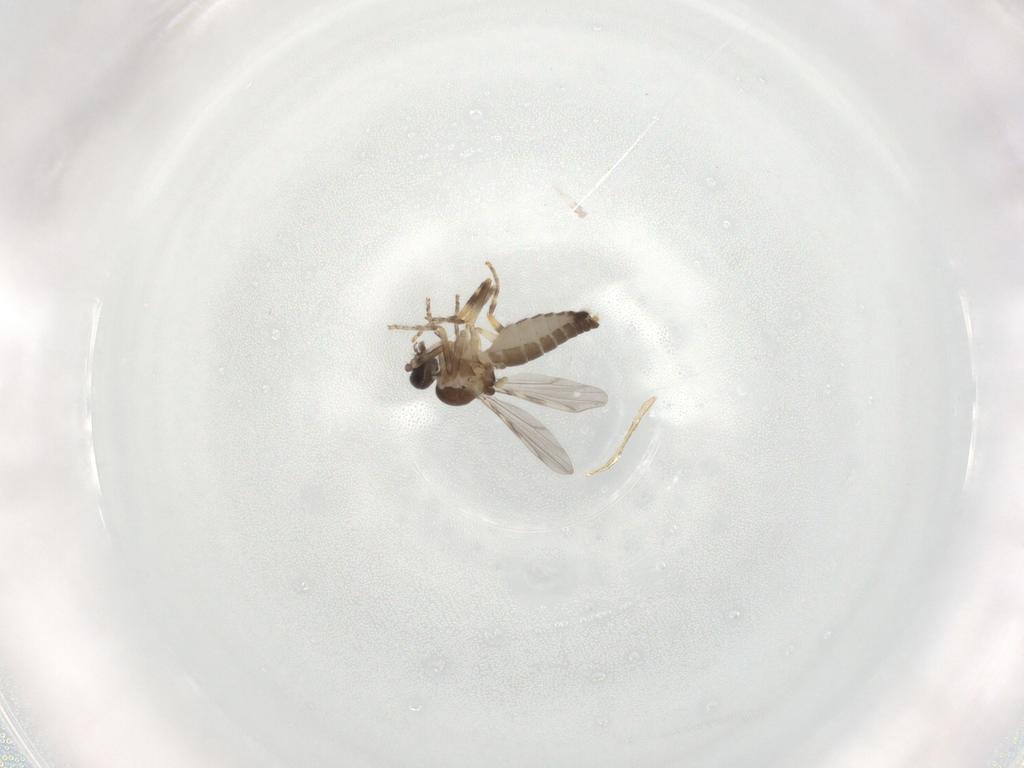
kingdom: Animalia
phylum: Arthropoda
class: Insecta
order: Diptera
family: Ceratopogonidae
